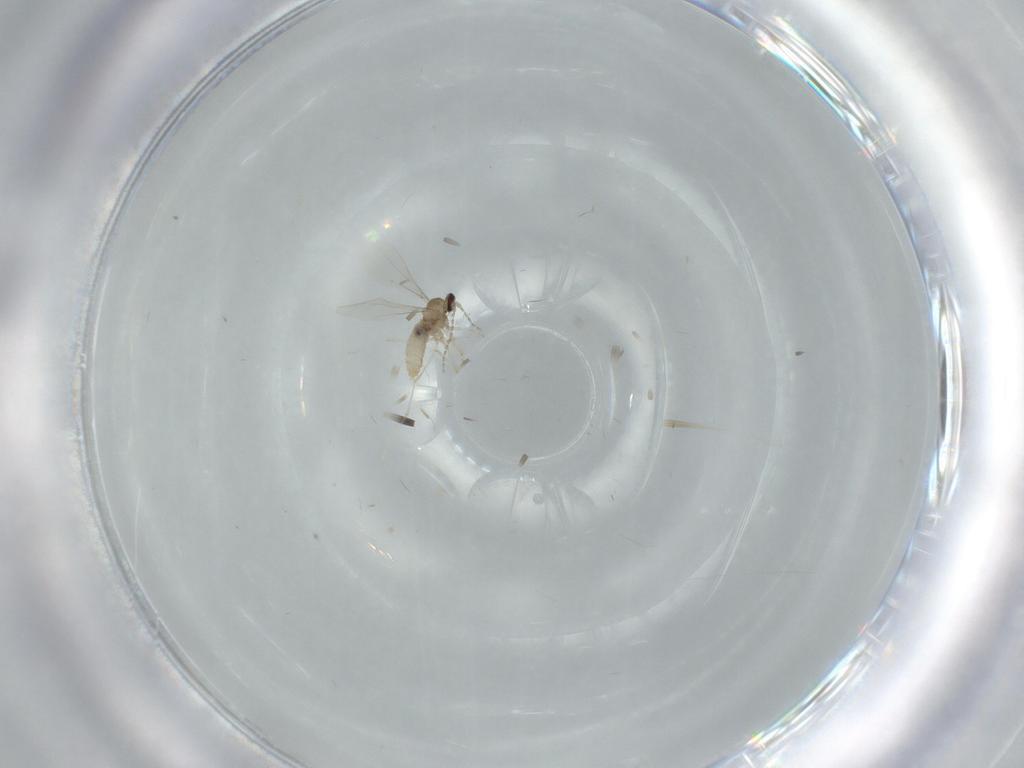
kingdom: Animalia
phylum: Arthropoda
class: Insecta
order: Diptera
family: Cecidomyiidae
